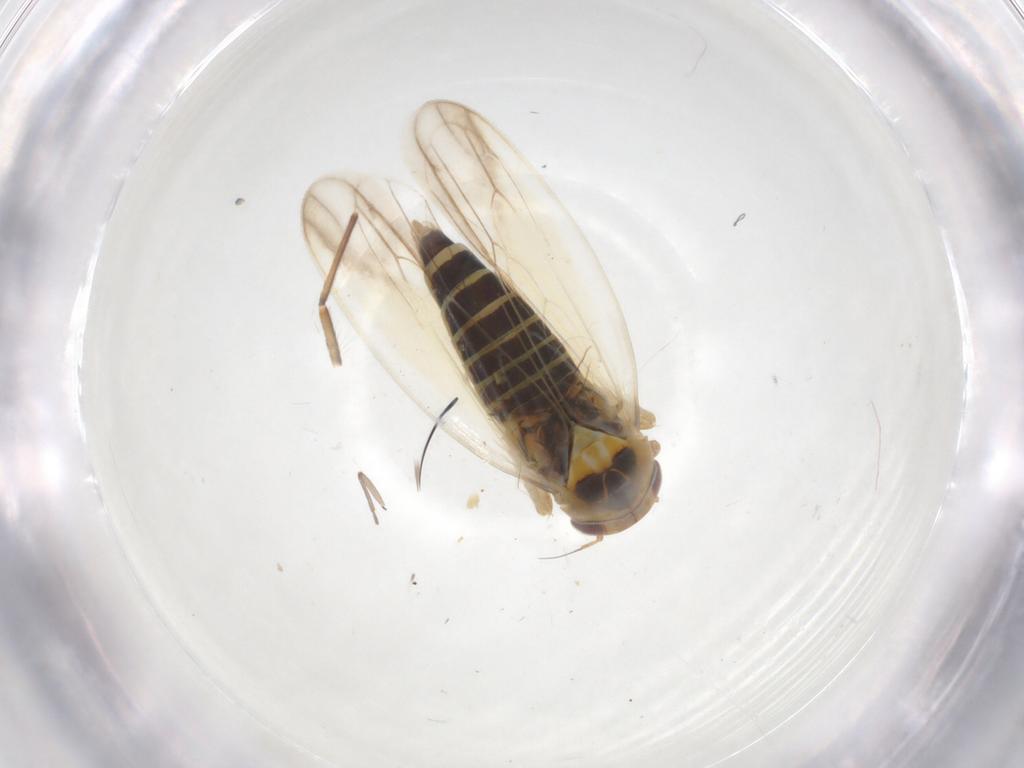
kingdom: Animalia
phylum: Arthropoda
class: Insecta
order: Hemiptera
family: Cicadellidae
